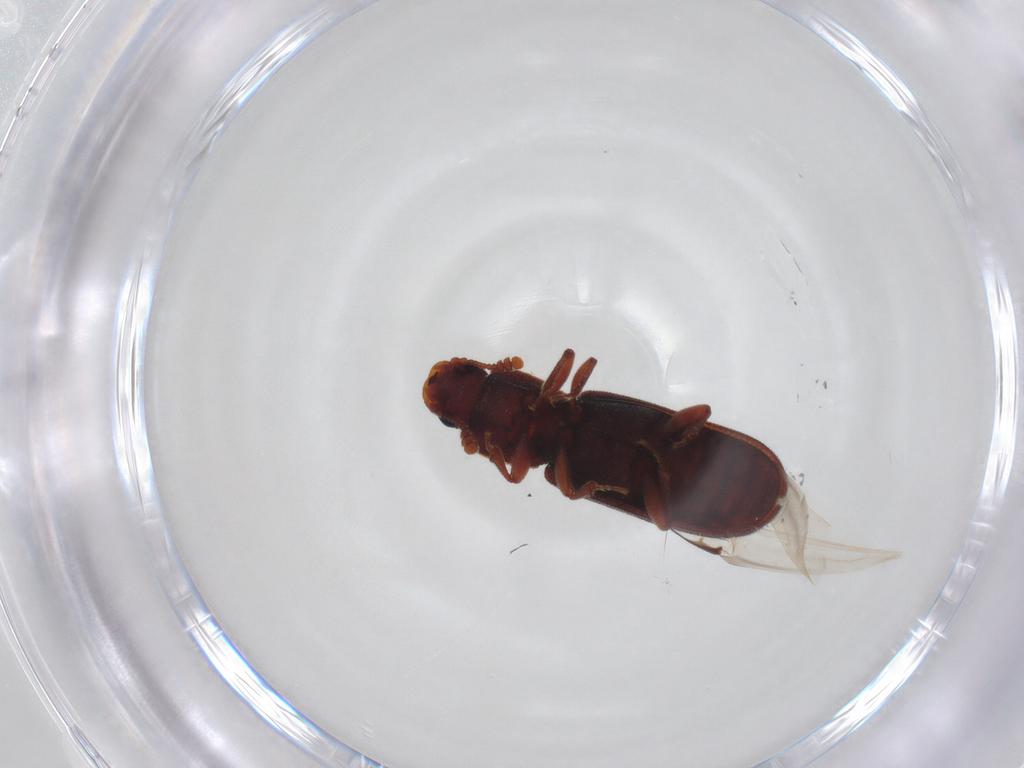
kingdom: Animalia
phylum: Arthropoda
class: Insecta
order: Coleoptera
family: Zopheridae
